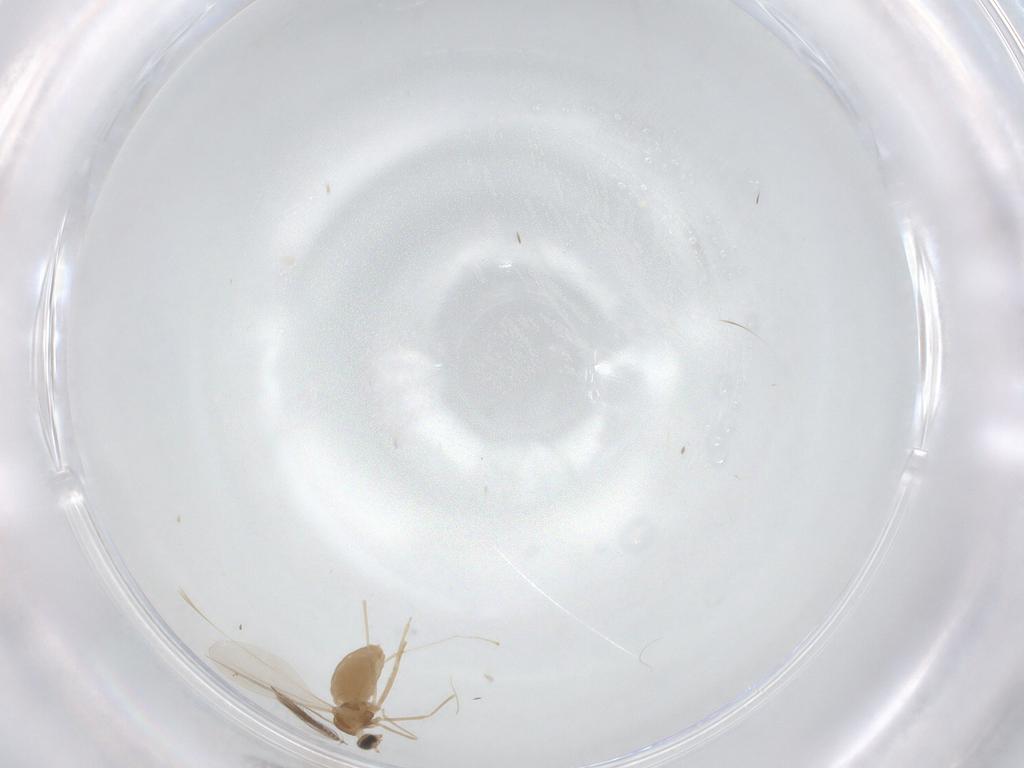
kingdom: Animalia
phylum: Arthropoda
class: Insecta
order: Diptera
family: Cecidomyiidae
